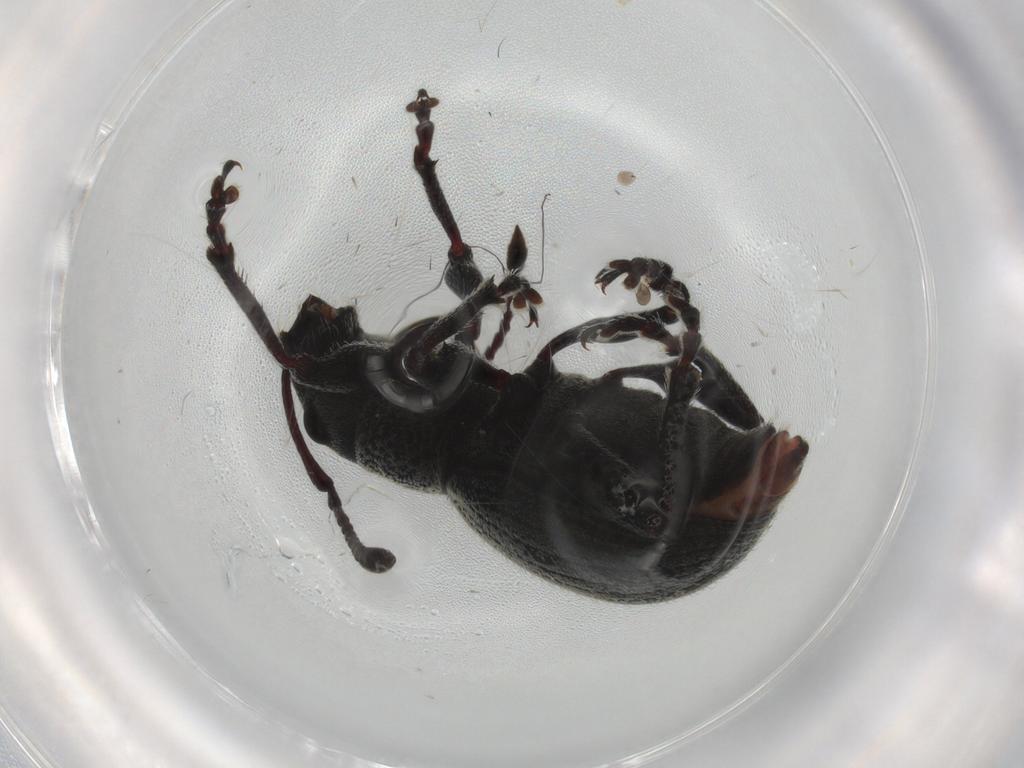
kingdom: Animalia
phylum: Arthropoda
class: Insecta
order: Coleoptera
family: Curculionidae
